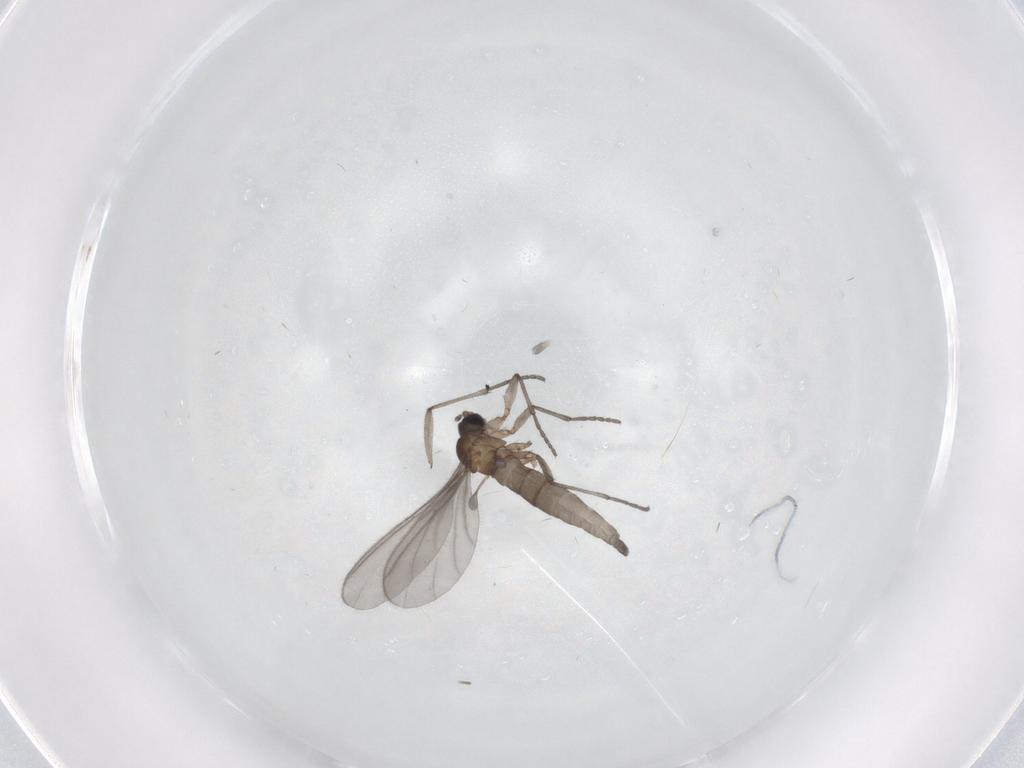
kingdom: Animalia
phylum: Arthropoda
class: Insecta
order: Diptera
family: Sciaridae
